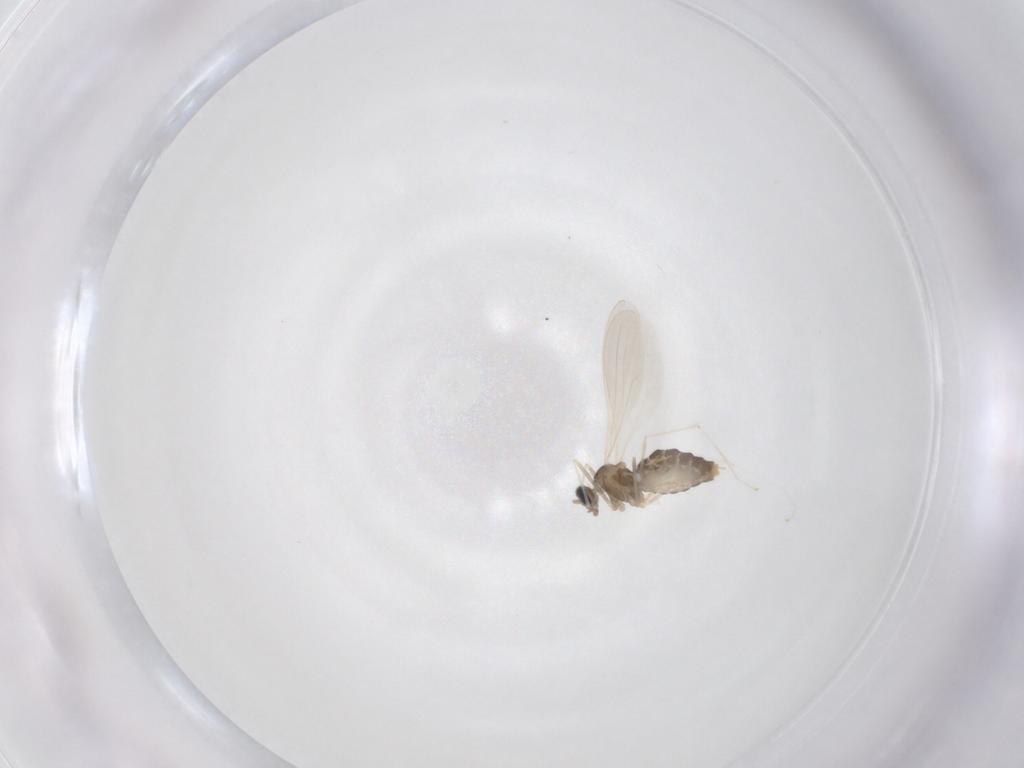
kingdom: Animalia
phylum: Arthropoda
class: Insecta
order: Diptera
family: Cecidomyiidae
